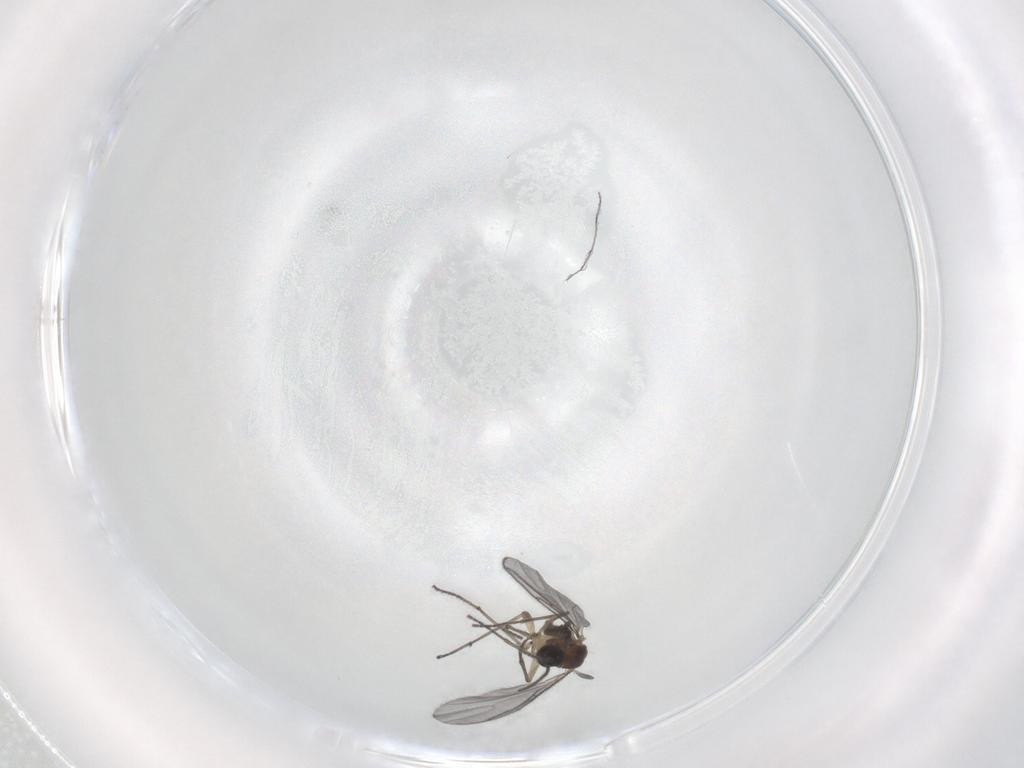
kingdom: Animalia
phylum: Arthropoda
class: Insecta
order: Diptera
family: Sciaridae
